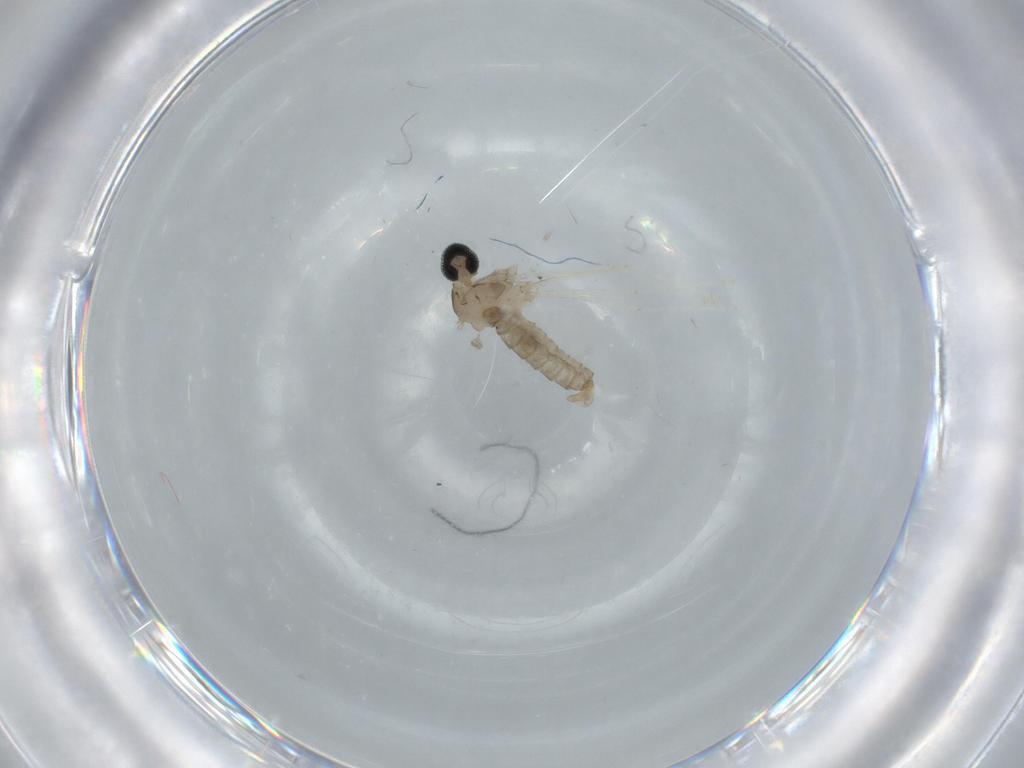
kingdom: Animalia
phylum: Arthropoda
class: Insecta
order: Diptera
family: Cecidomyiidae
